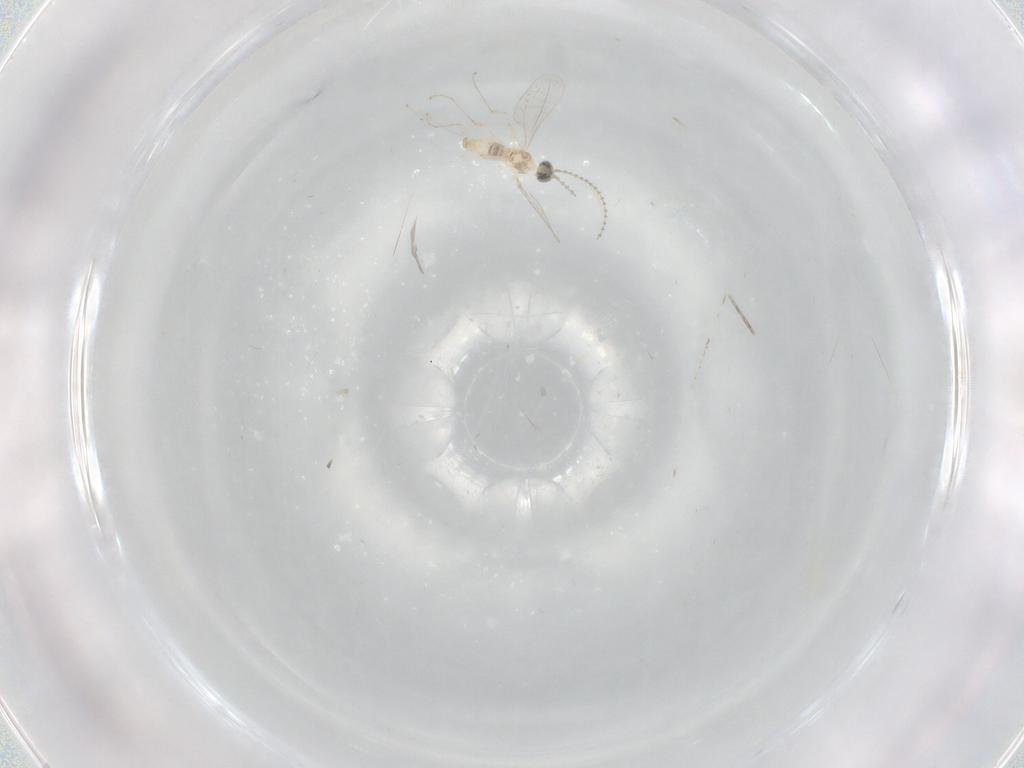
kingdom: Animalia
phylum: Arthropoda
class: Insecta
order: Diptera
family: Cecidomyiidae
